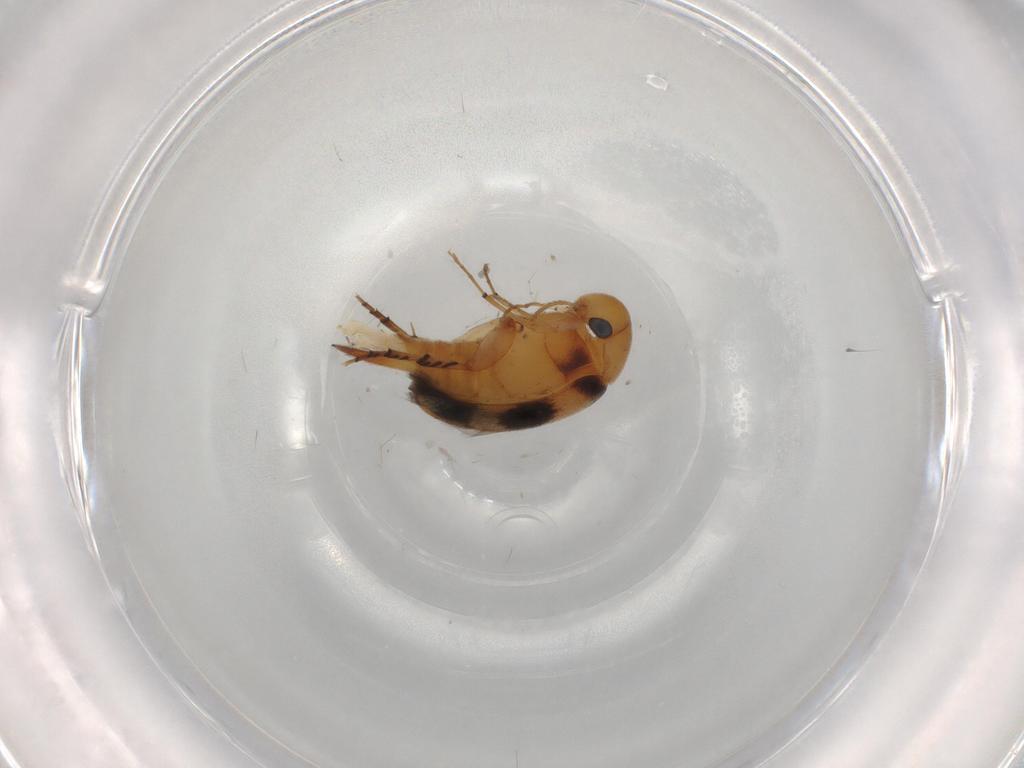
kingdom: Animalia
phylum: Arthropoda
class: Insecta
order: Coleoptera
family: Mordellidae
